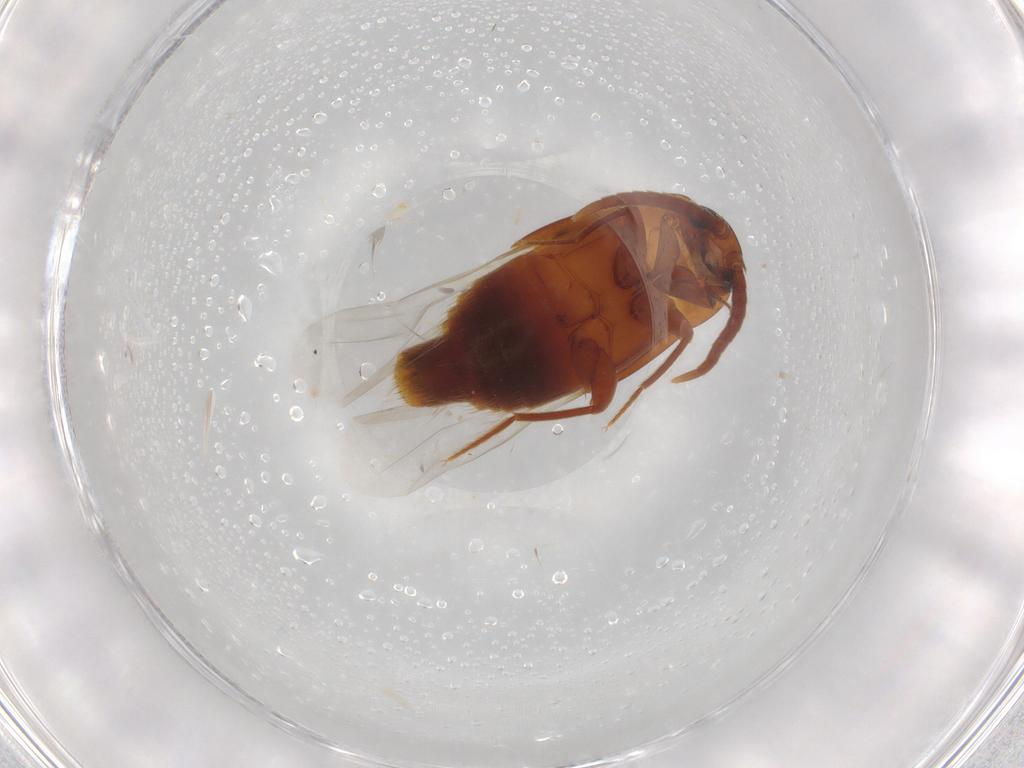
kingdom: Animalia
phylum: Arthropoda
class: Insecta
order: Coleoptera
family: Staphylinidae
